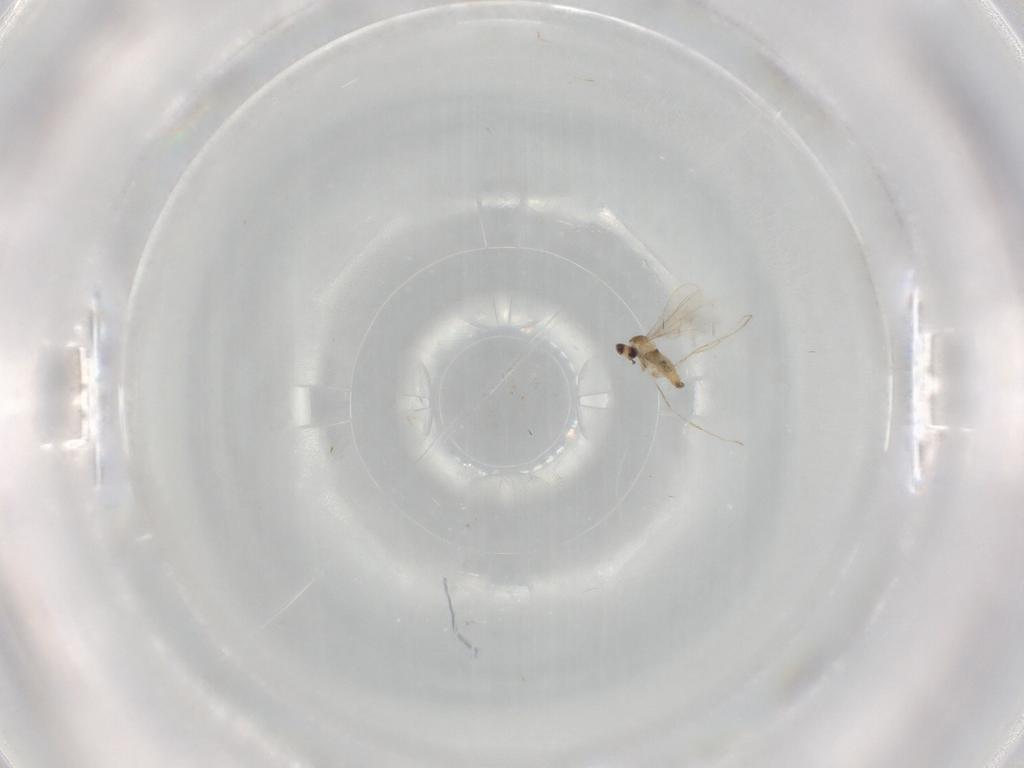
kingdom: Animalia
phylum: Arthropoda
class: Insecta
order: Diptera
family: Cecidomyiidae
